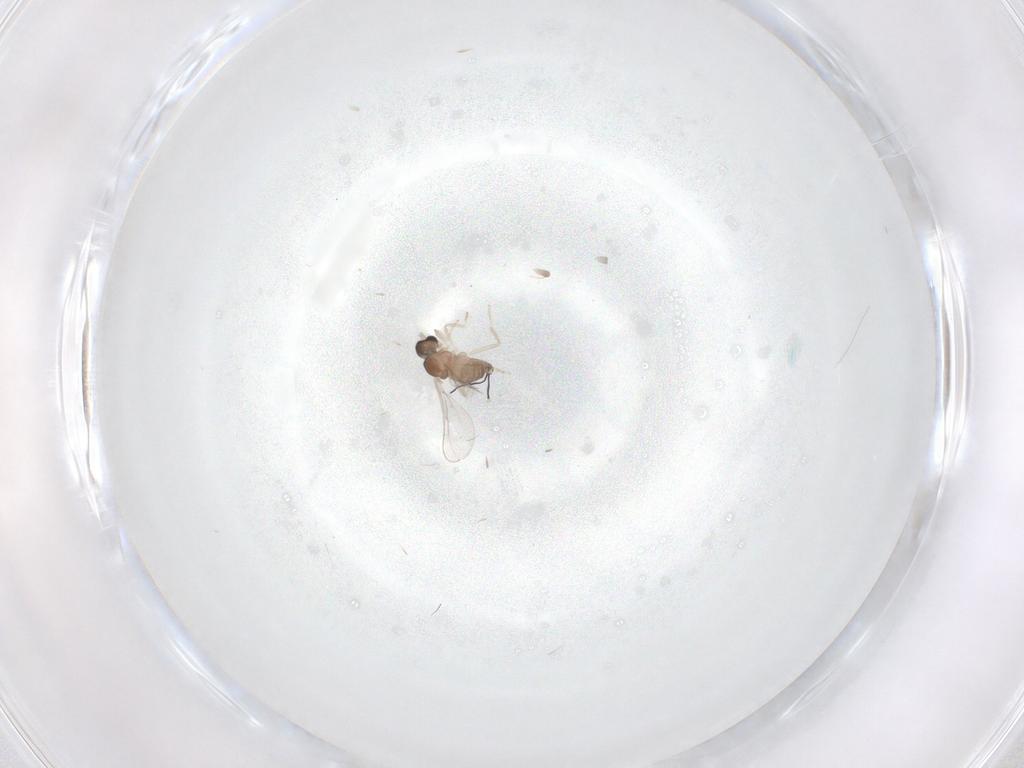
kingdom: Animalia
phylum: Arthropoda
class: Insecta
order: Diptera
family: Cecidomyiidae
